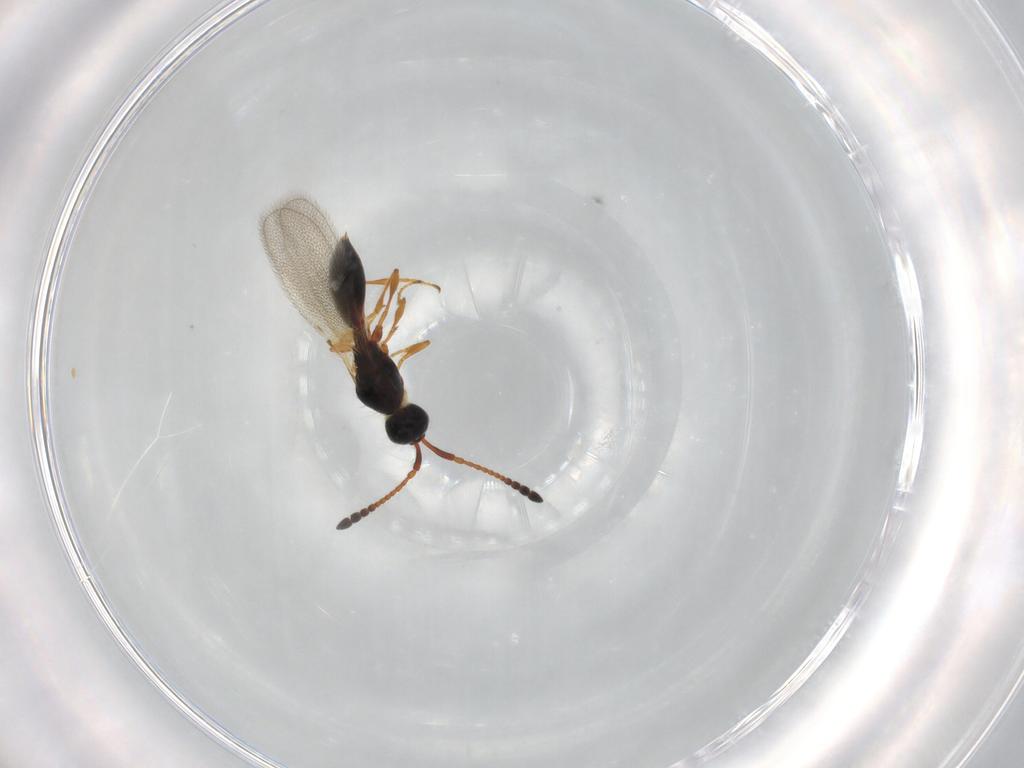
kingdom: Animalia
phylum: Arthropoda
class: Insecta
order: Hymenoptera
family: Diapriidae
